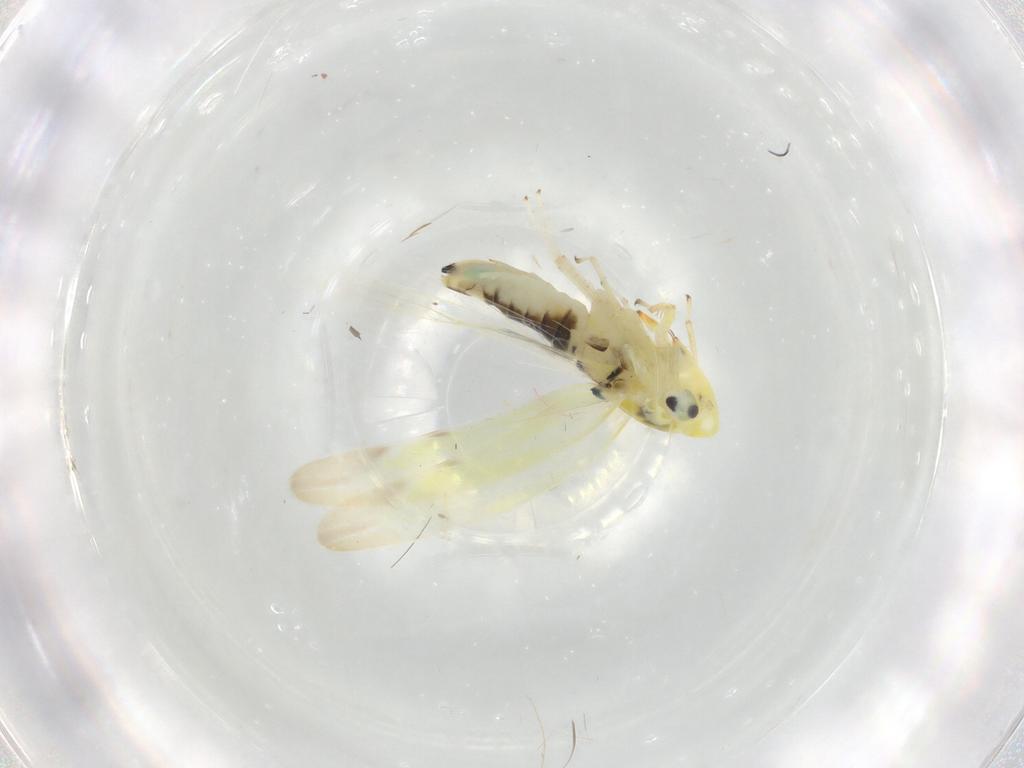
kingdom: Animalia
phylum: Arthropoda
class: Insecta
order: Hemiptera
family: Cicadellidae
